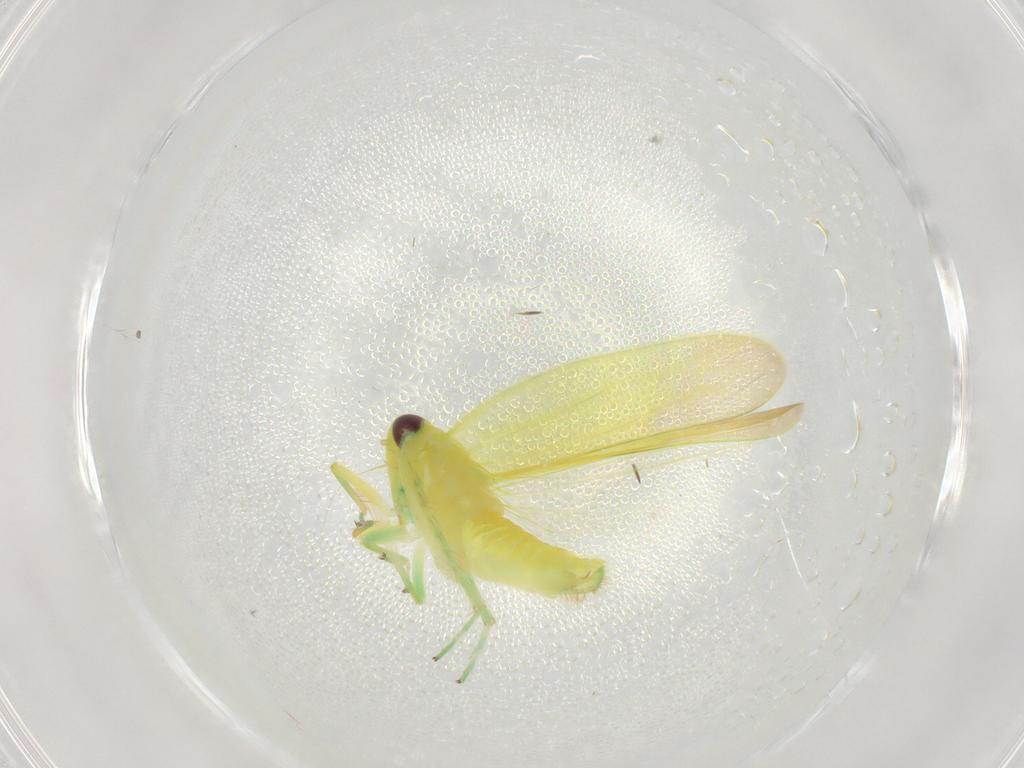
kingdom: Animalia
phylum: Arthropoda
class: Insecta
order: Hemiptera
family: Cicadellidae
